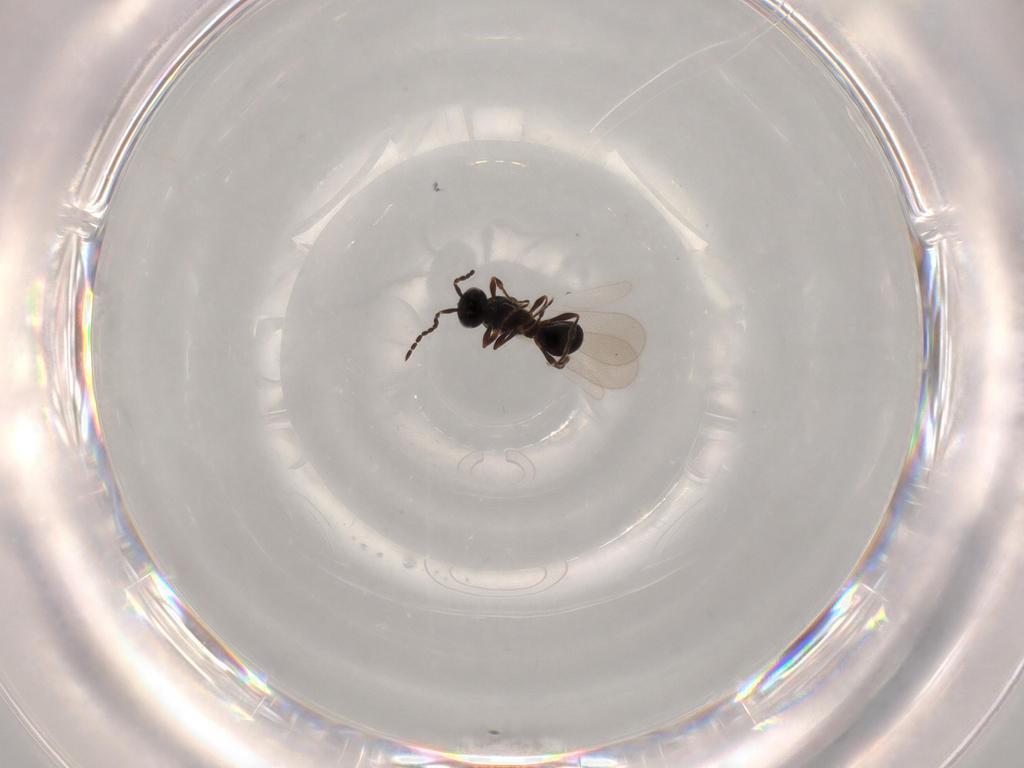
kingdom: Animalia
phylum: Arthropoda
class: Insecta
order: Hymenoptera
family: Platygastridae
